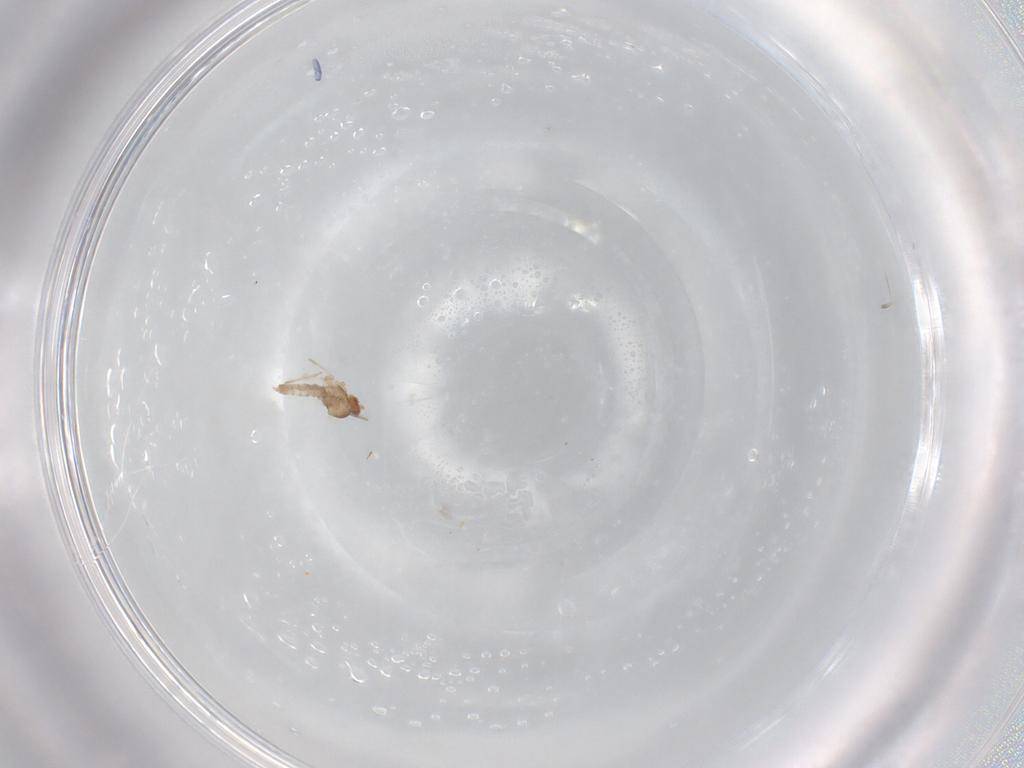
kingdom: Animalia
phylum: Arthropoda
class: Insecta
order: Diptera
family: Cecidomyiidae
